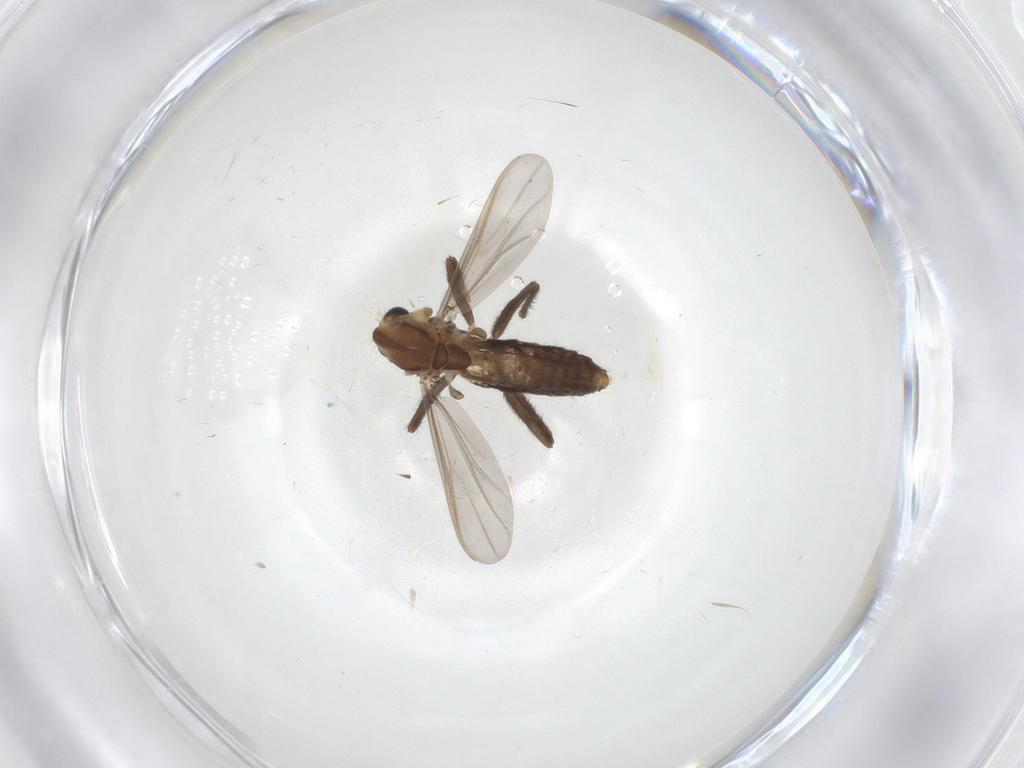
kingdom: Animalia
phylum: Arthropoda
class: Insecta
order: Diptera
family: Chironomidae
